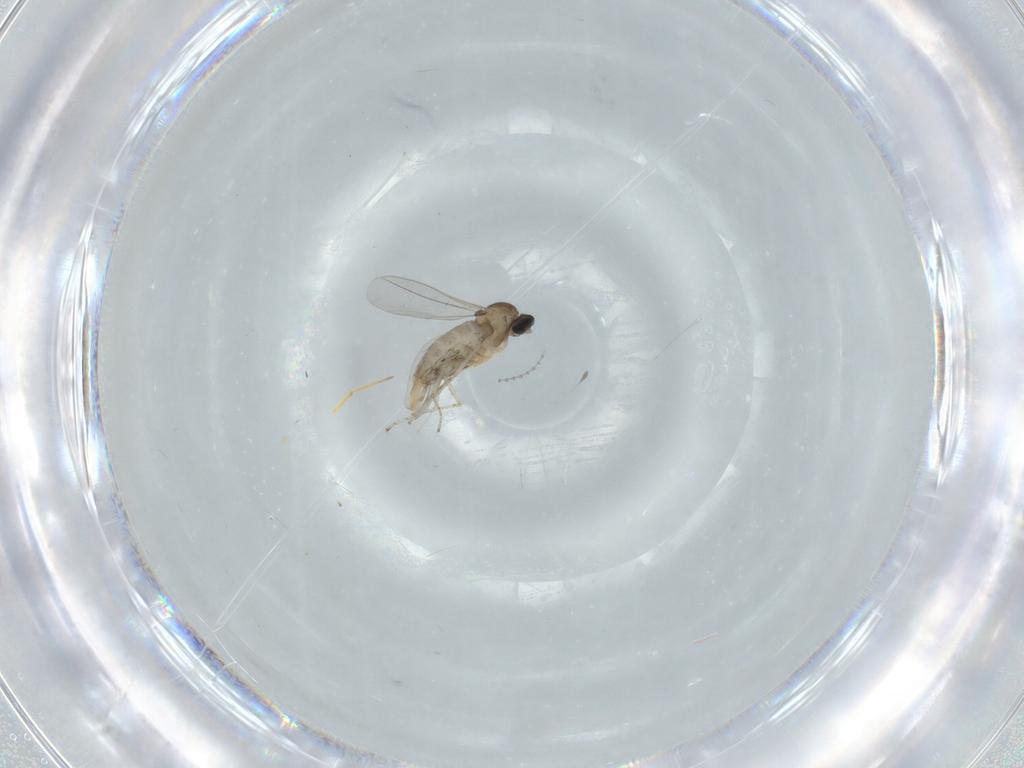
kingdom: Animalia
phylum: Arthropoda
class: Insecta
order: Diptera
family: Cecidomyiidae
